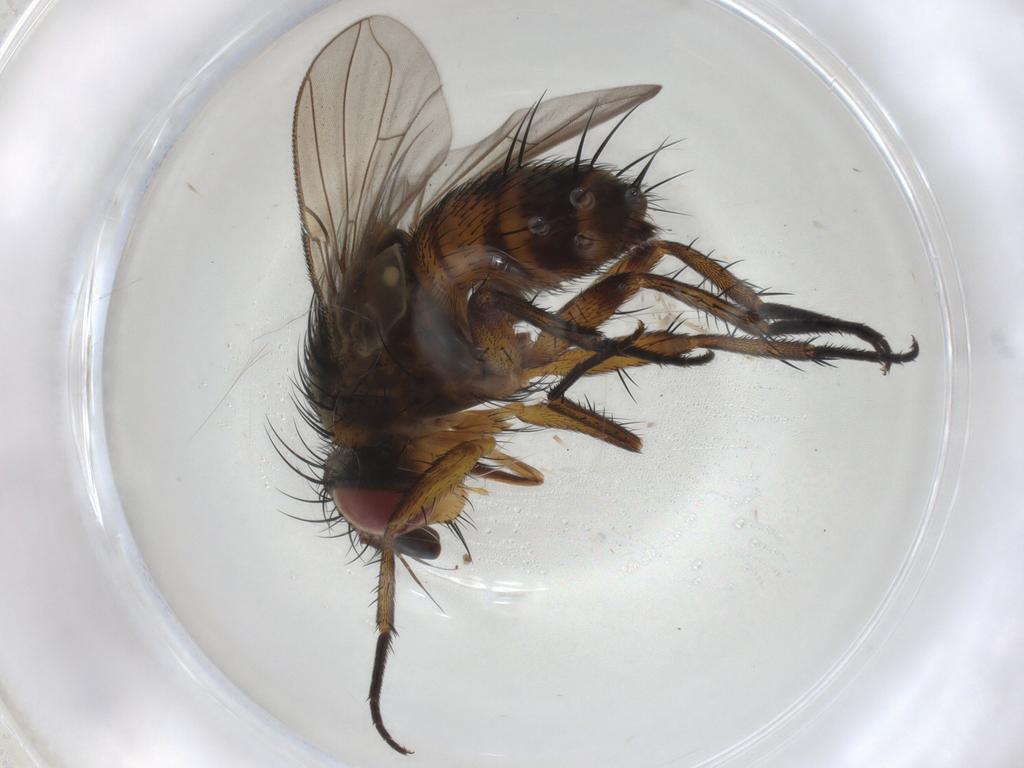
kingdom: Animalia
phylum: Arthropoda
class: Insecta
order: Diptera
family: Tachinidae
